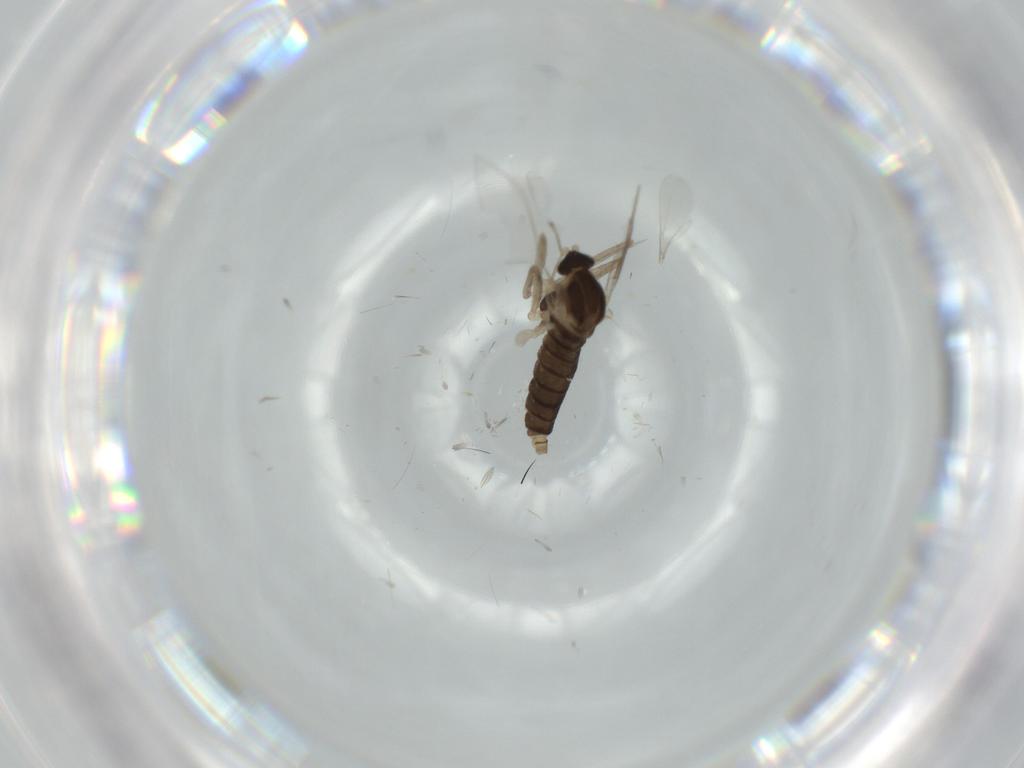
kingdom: Animalia
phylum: Arthropoda
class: Insecta
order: Diptera
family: Cecidomyiidae
